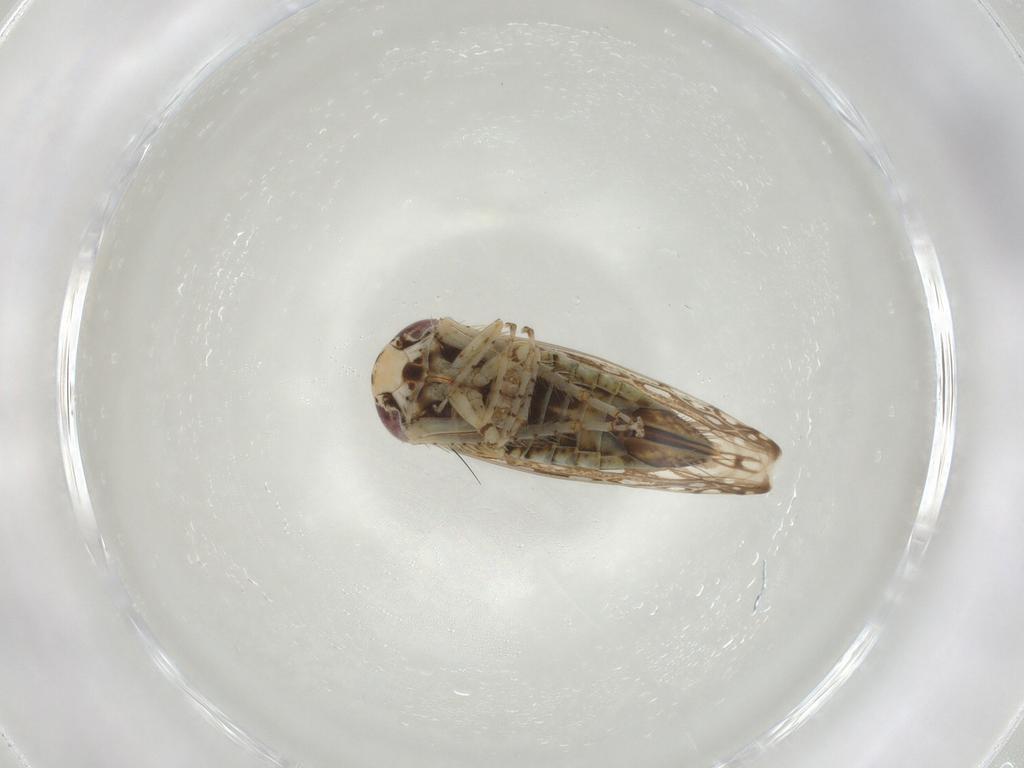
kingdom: Animalia
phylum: Arthropoda
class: Insecta
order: Hemiptera
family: Cicadellidae
